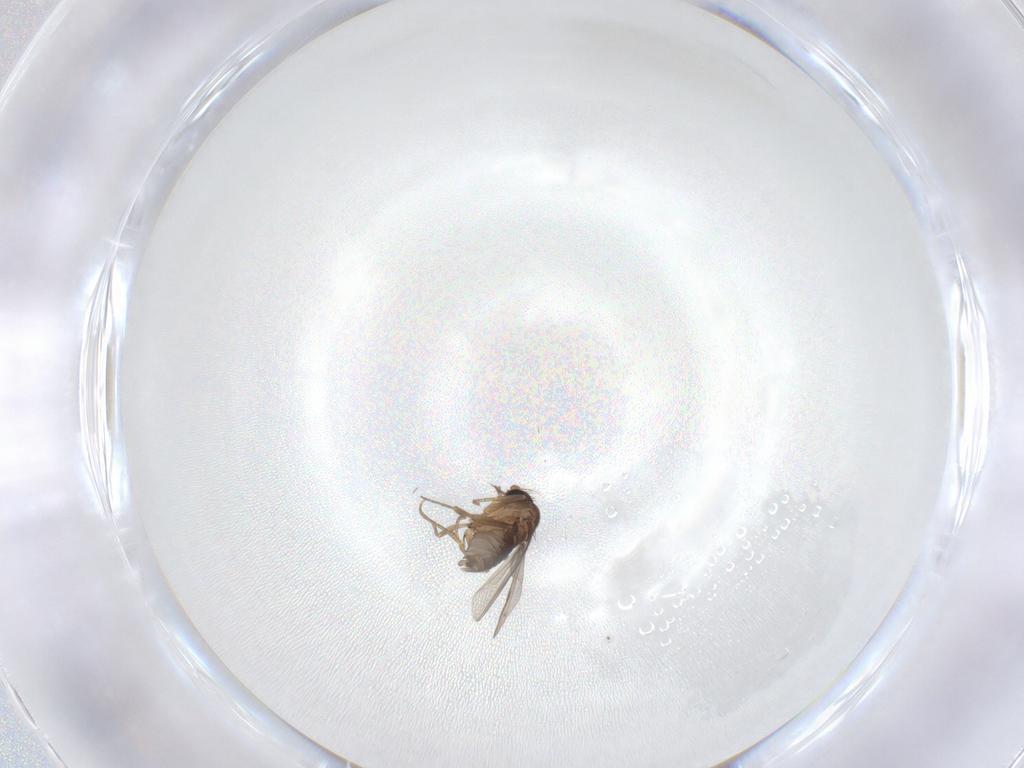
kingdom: Animalia
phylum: Arthropoda
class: Insecta
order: Diptera
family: Phoridae
